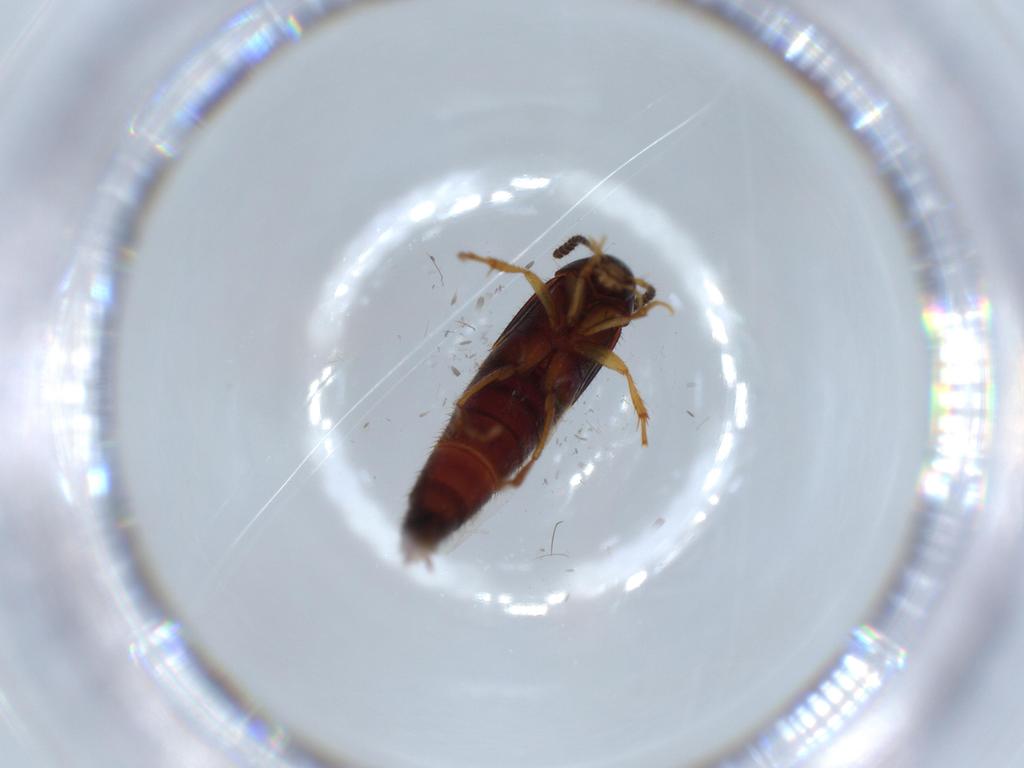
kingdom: Animalia
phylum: Arthropoda
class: Insecta
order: Coleoptera
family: Staphylinidae
